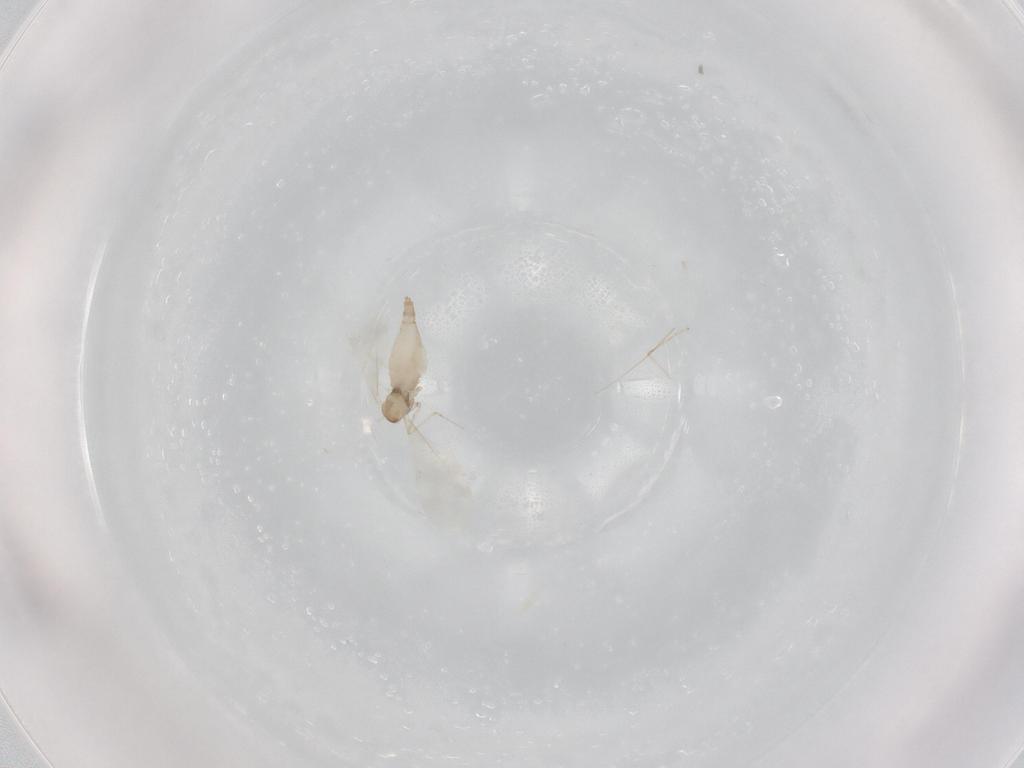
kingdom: Animalia
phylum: Arthropoda
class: Insecta
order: Diptera
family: Cecidomyiidae
